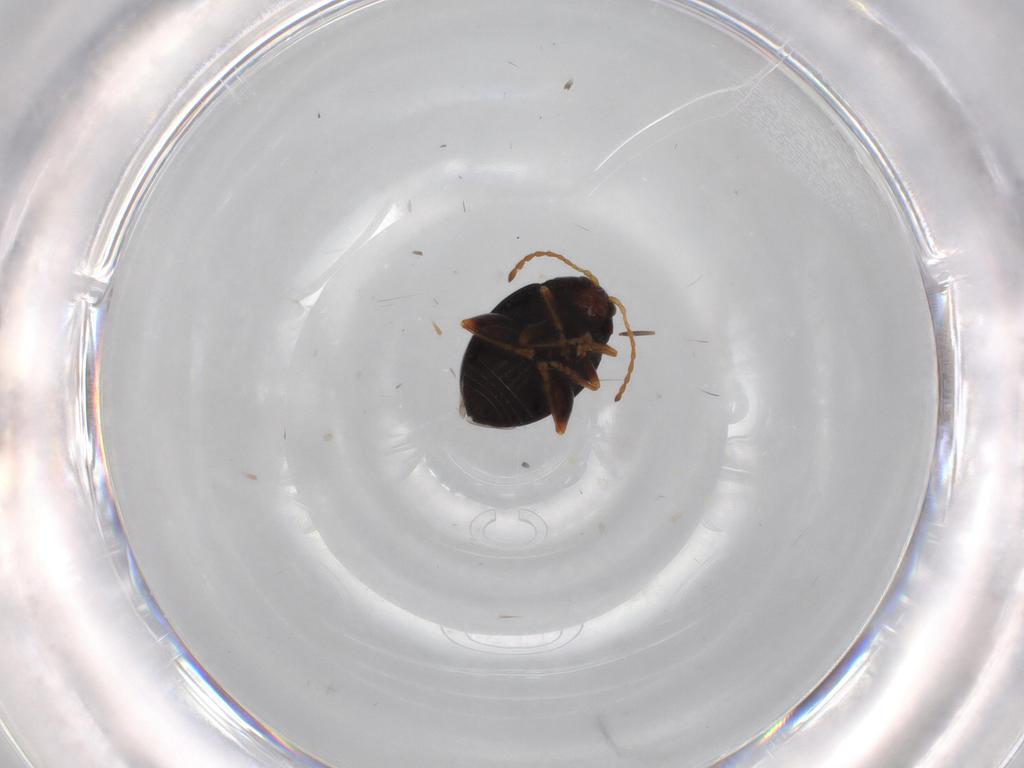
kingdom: Animalia
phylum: Arthropoda
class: Insecta
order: Coleoptera
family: Chrysomelidae
